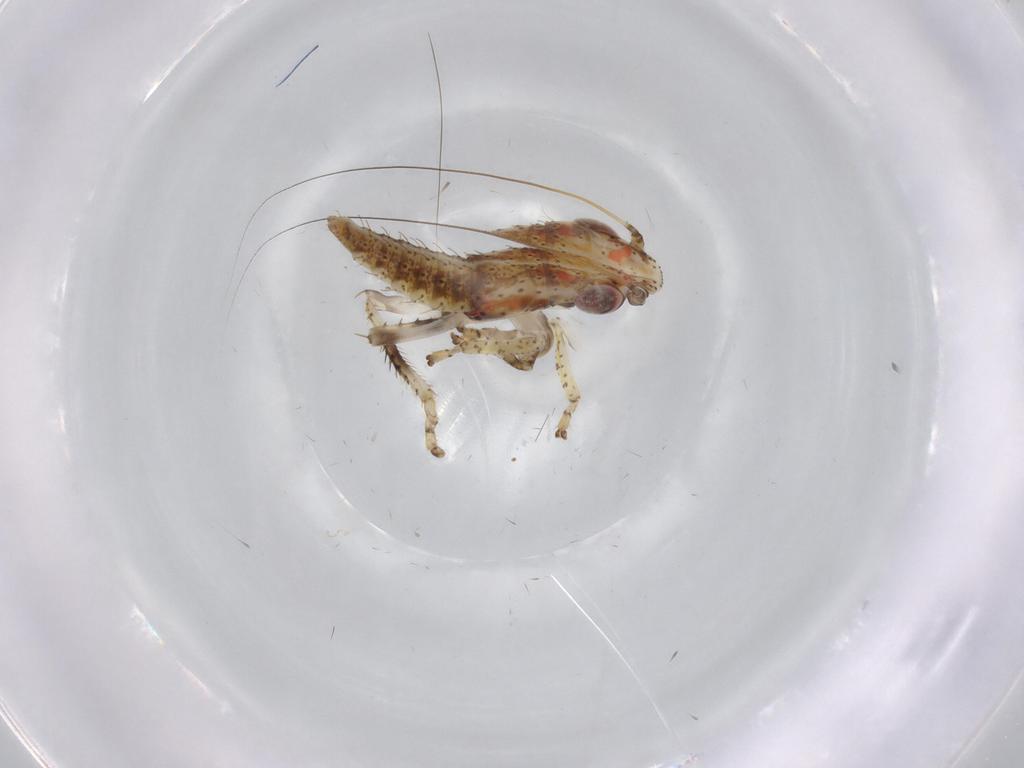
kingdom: Animalia
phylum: Arthropoda
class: Insecta
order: Hemiptera
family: Cicadellidae
